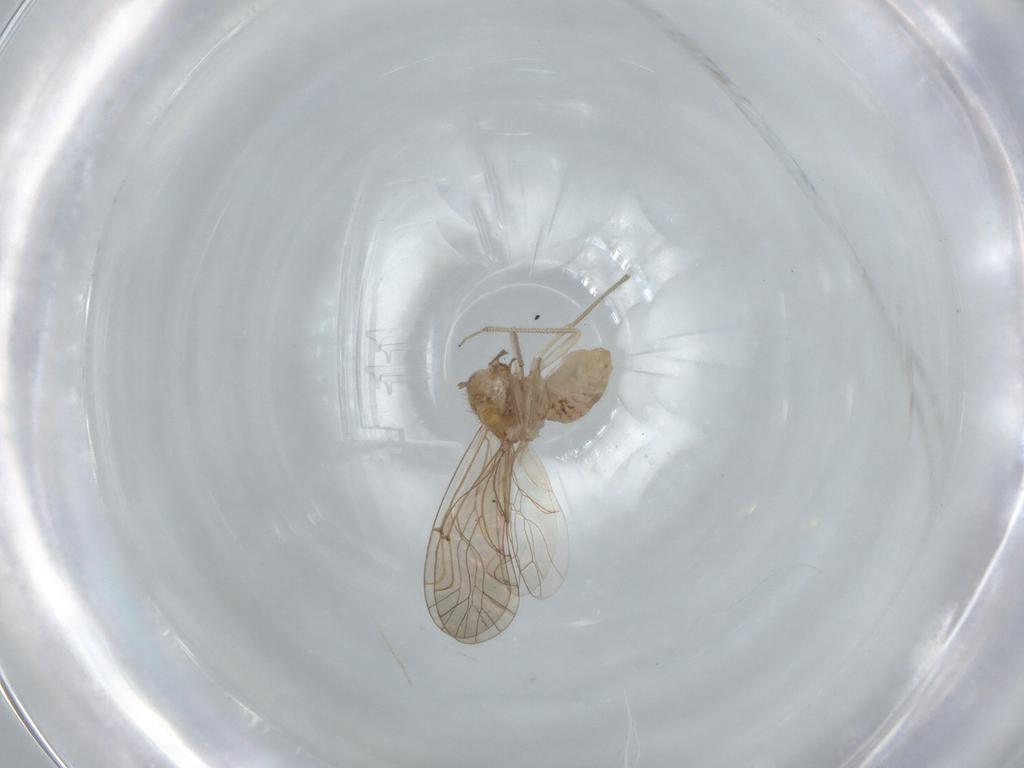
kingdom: Animalia
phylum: Arthropoda
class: Insecta
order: Psocodea
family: Lachesillidae
